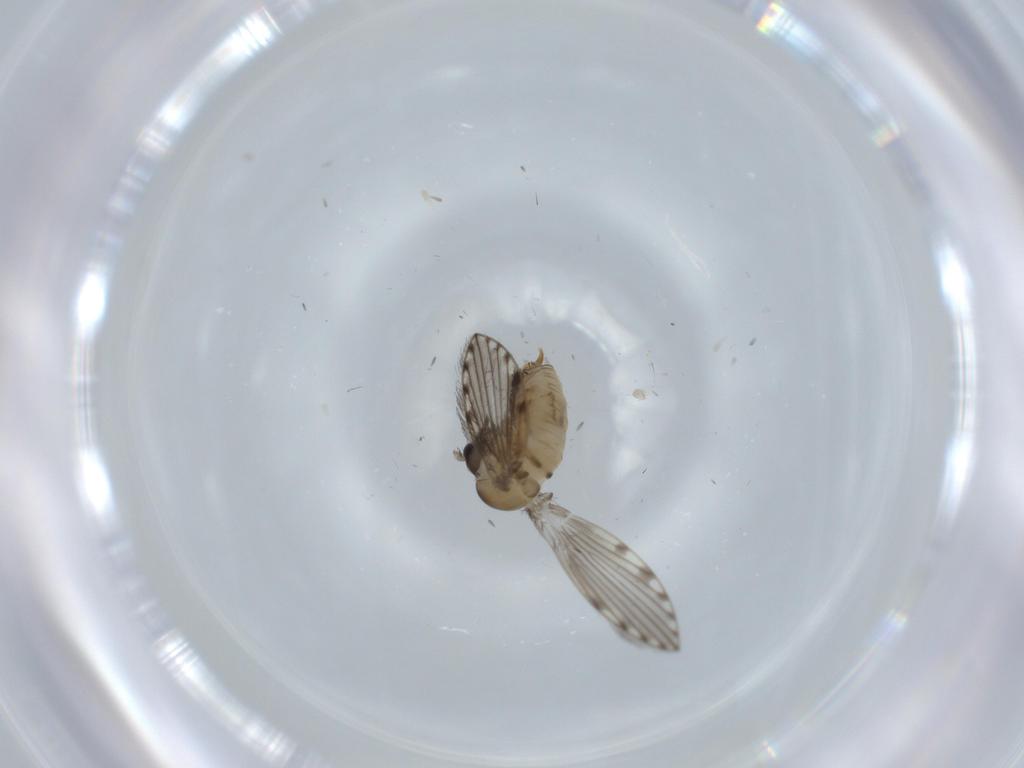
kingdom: Animalia
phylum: Arthropoda
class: Insecta
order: Diptera
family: Psychodidae
